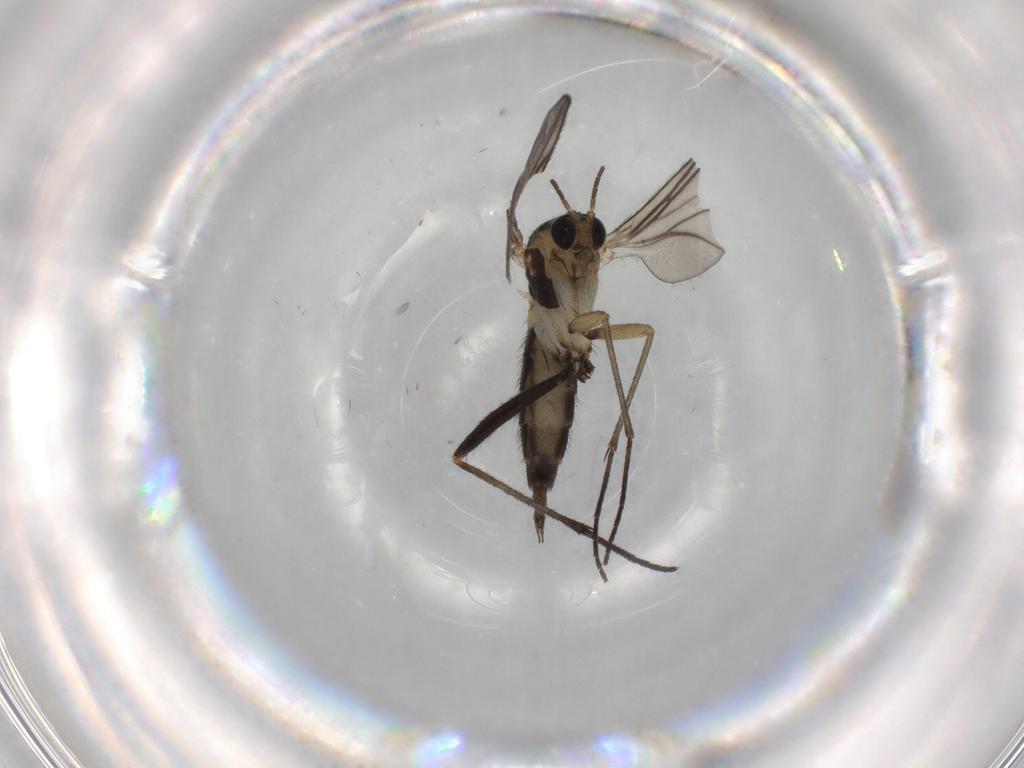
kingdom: Animalia
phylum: Arthropoda
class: Insecta
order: Diptera
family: Sciaridae
